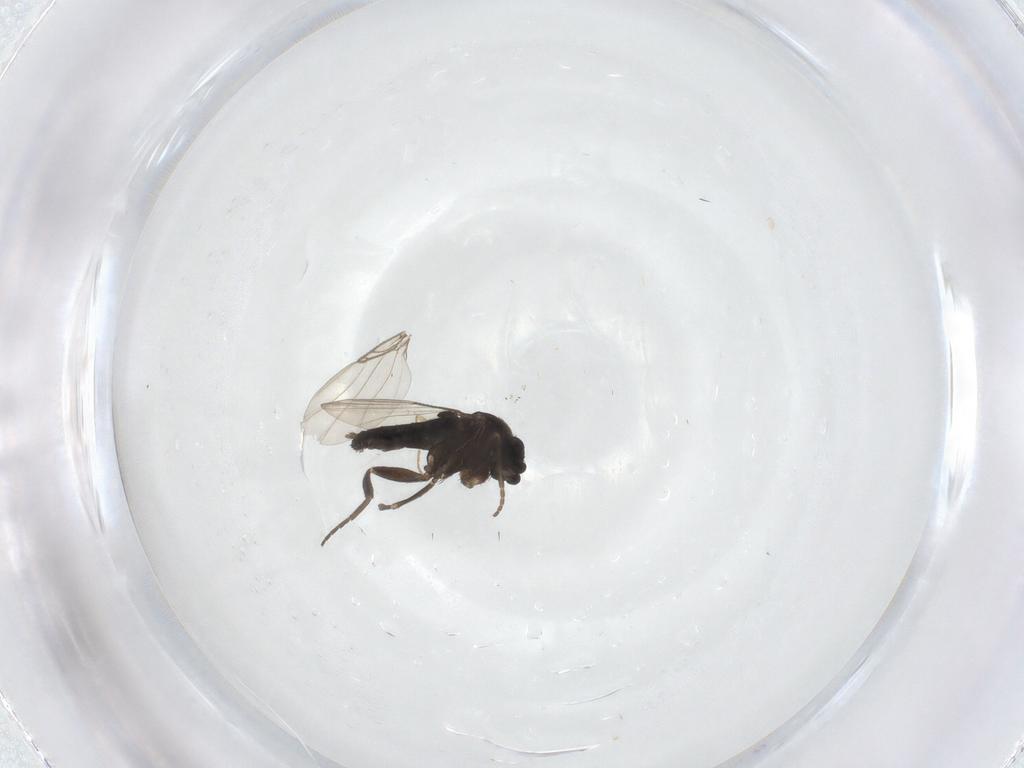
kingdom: Animalia
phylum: Arthropoda
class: Insecta
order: Diptera
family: Phoridae
